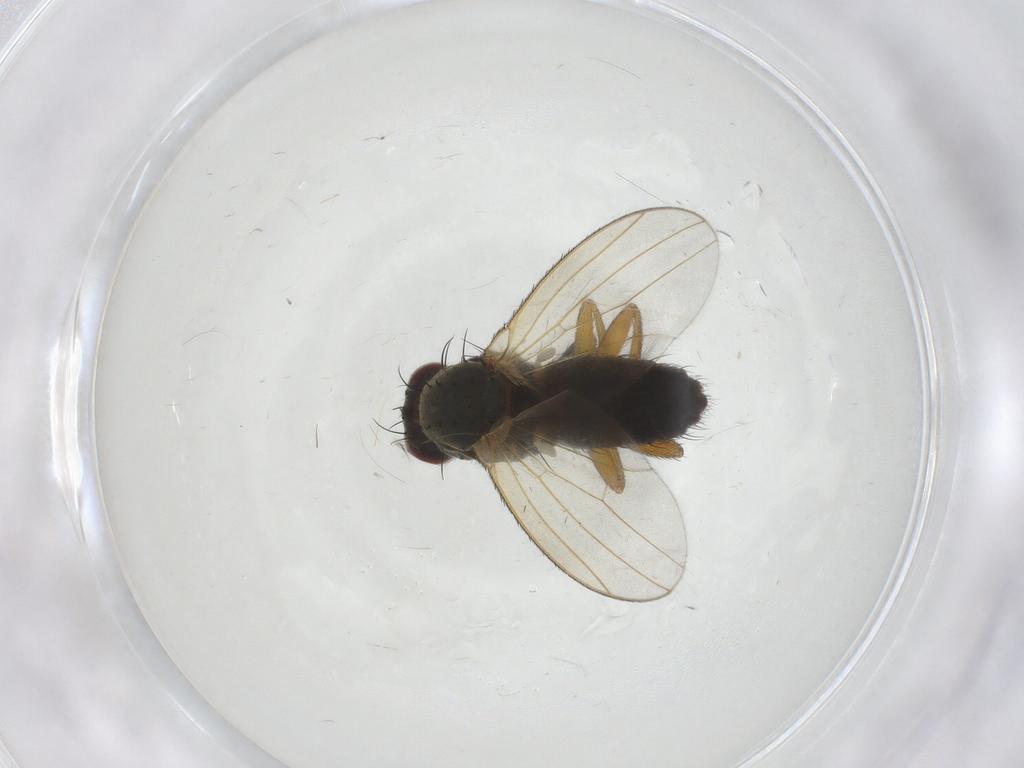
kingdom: Animalia
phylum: Arthropoda
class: Insecta
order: Diptera
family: Heleomyzidae
